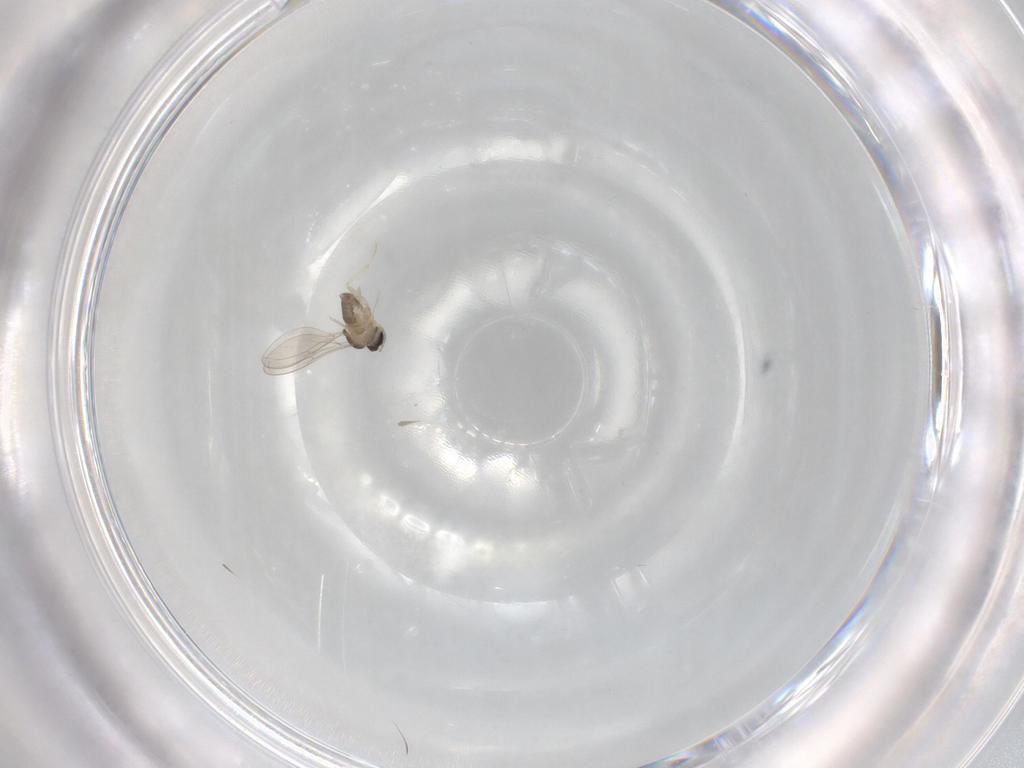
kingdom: Animalia
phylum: Arthropoda
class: Insecta
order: Diptera
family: Cecidomyiidae
